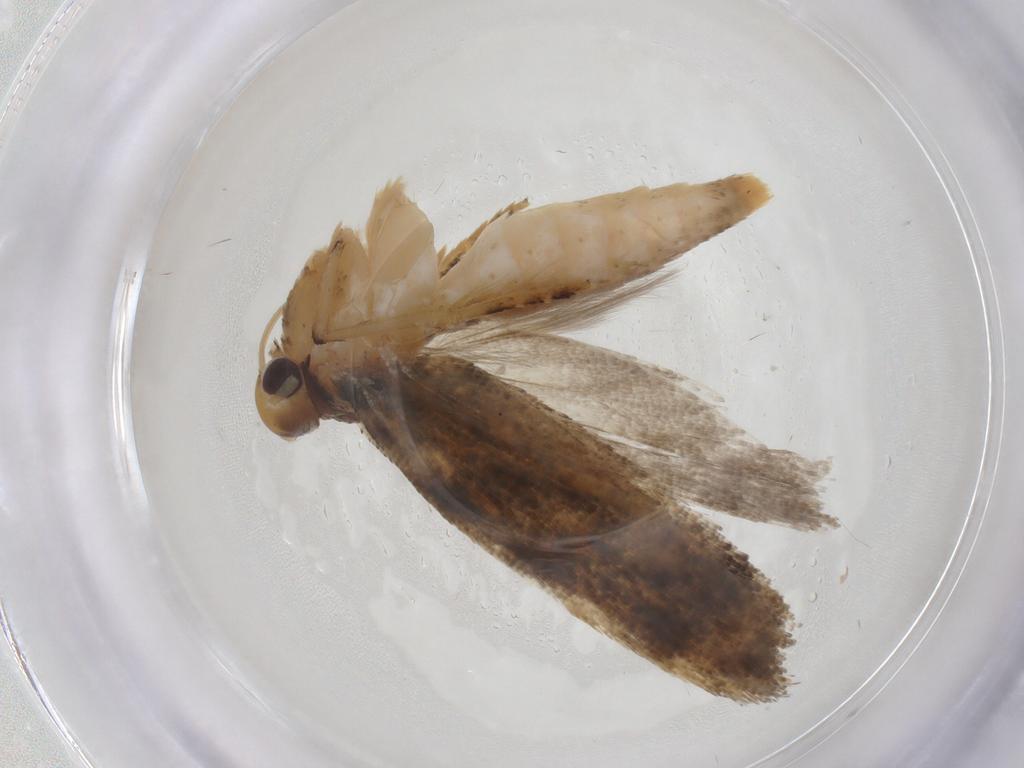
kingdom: Animalia
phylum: Arthropoda
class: Insecta
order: Lepidoptera
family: Gelechiidae
